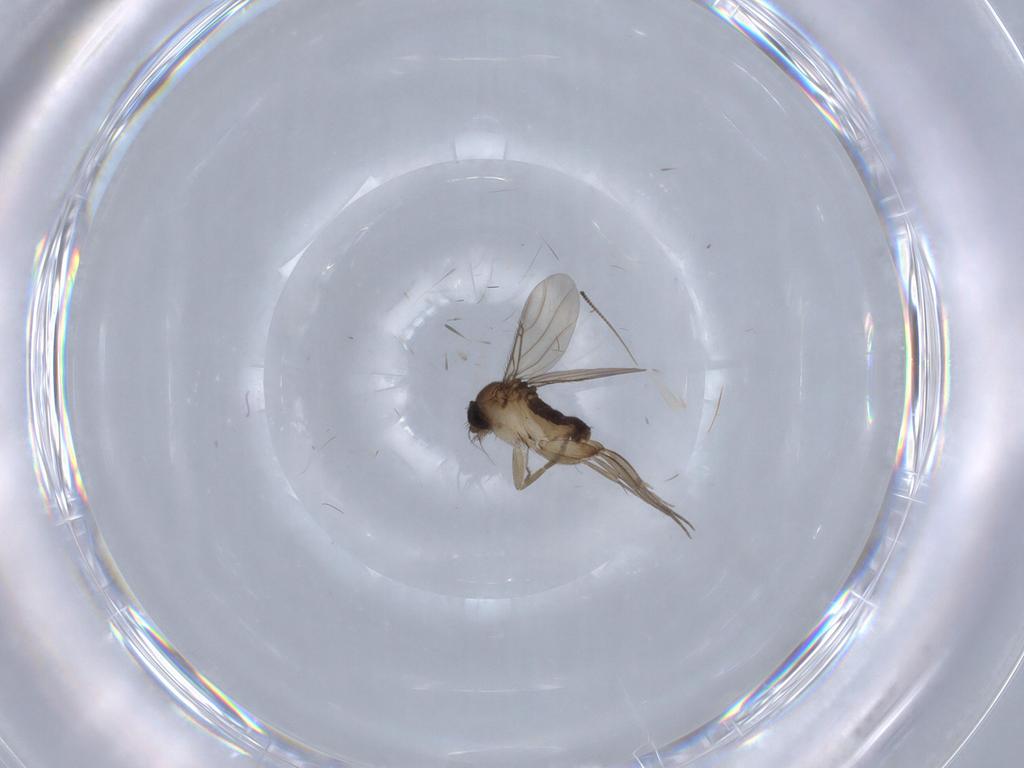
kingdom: Animalia
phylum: Arthropoda
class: Insecta
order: Diptera
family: Phoridae
